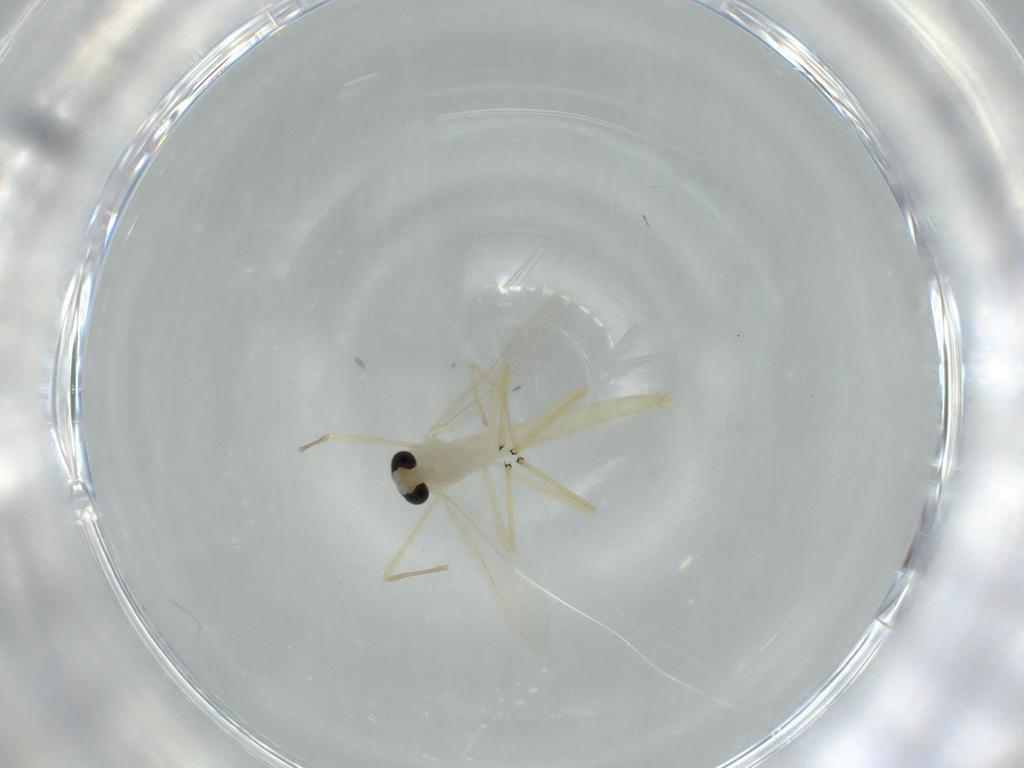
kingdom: Animalia
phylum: Arthropoda
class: Insecta
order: Diptera
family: Chironomidae
